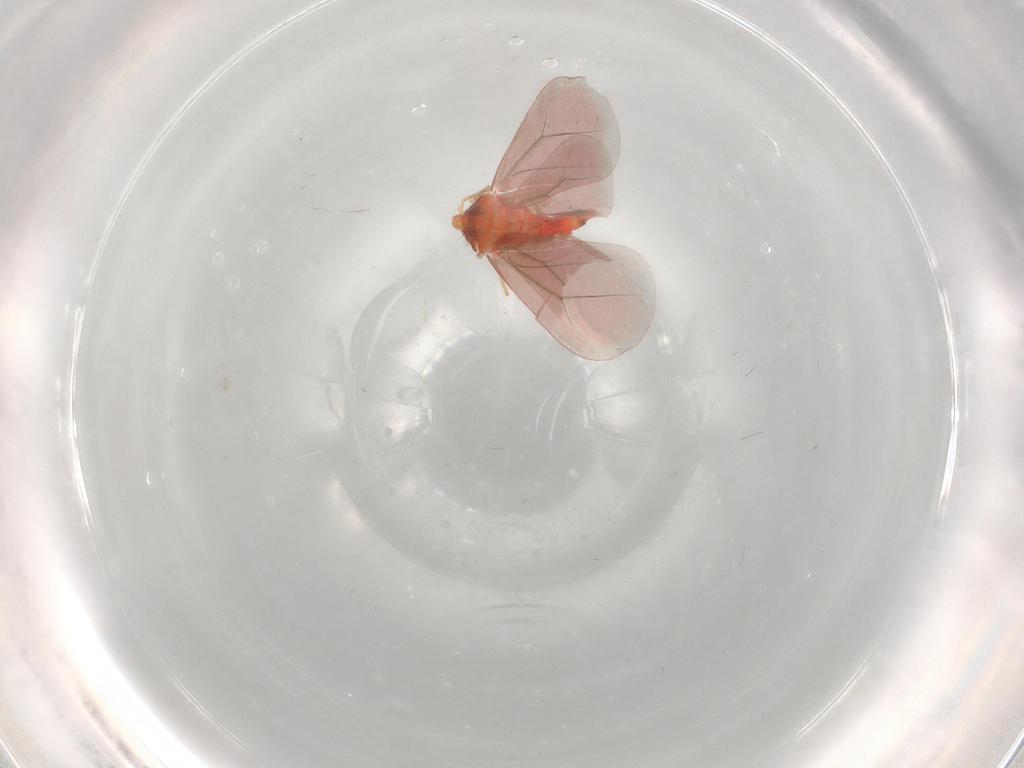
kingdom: Animalia
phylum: Arthropoda
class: Insecta
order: Hemiptera
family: Aleyrodidae
